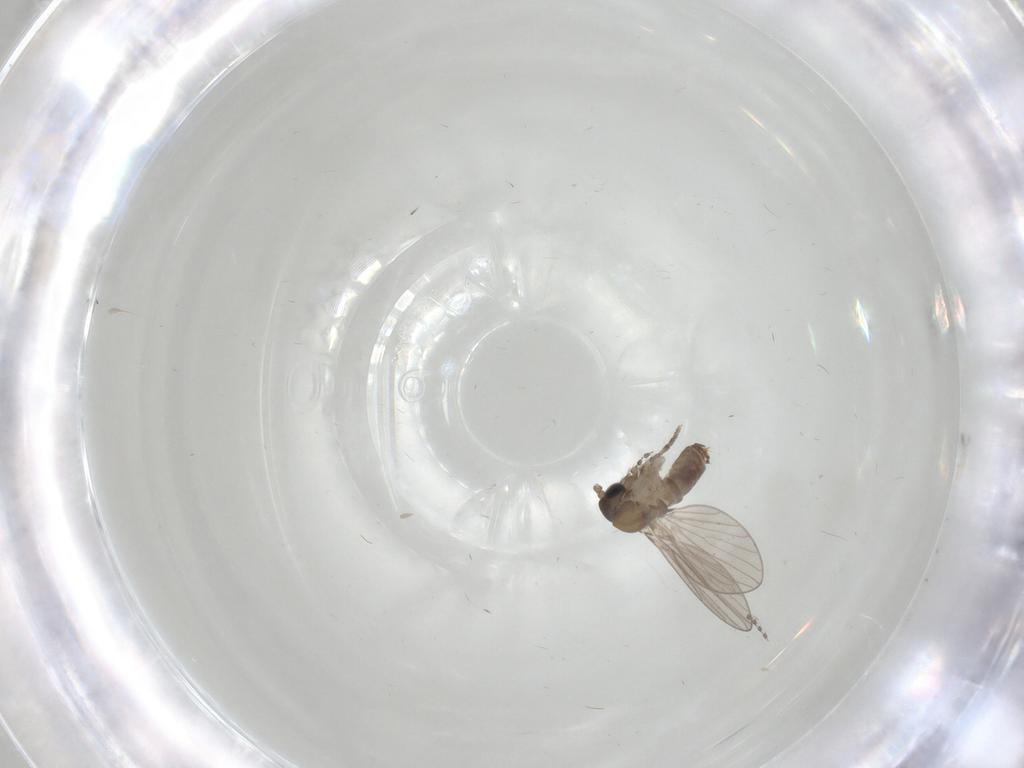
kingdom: Animalia
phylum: Arthropoda
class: Insecta
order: Diptera
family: Psychodidae
